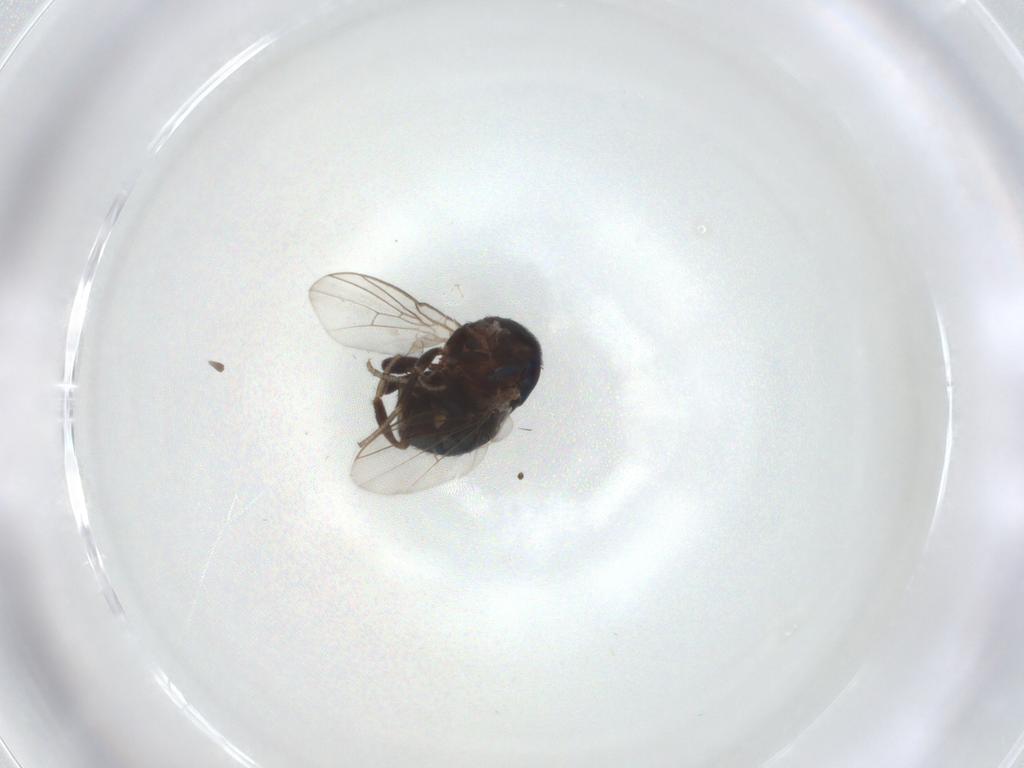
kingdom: Animalia
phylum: Arthropoda
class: Insecta
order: Diptera
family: Cryptochetidae
